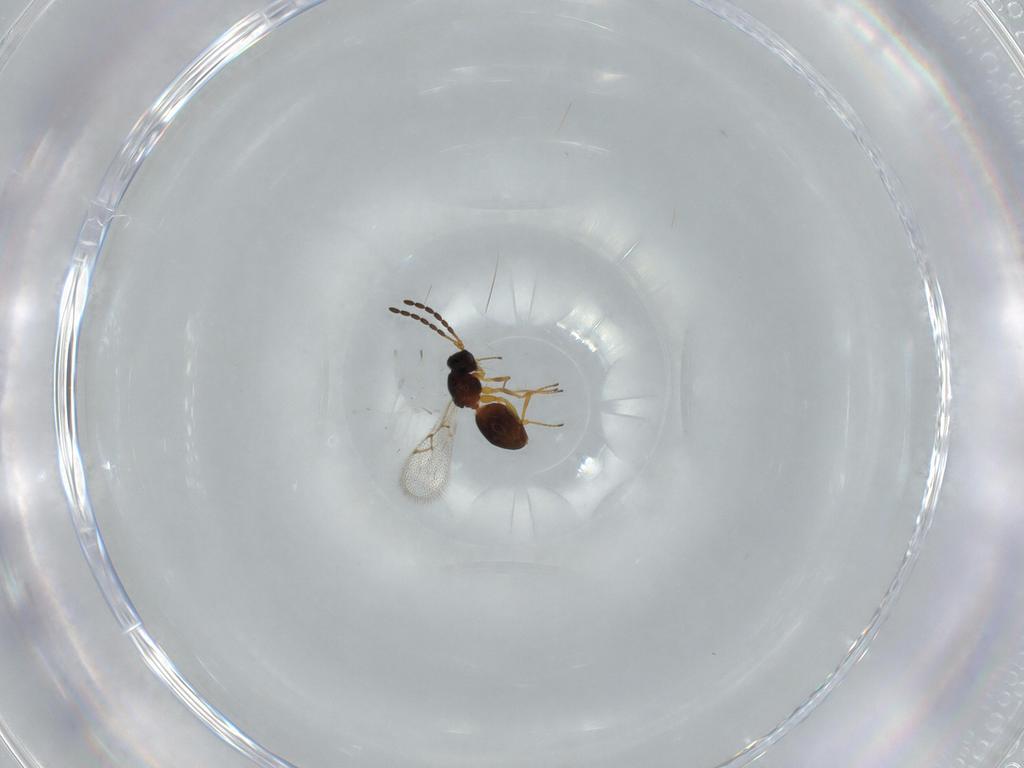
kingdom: Animalia
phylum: Arthropoda
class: Insecta
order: Hymenoptera
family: Figitidae
